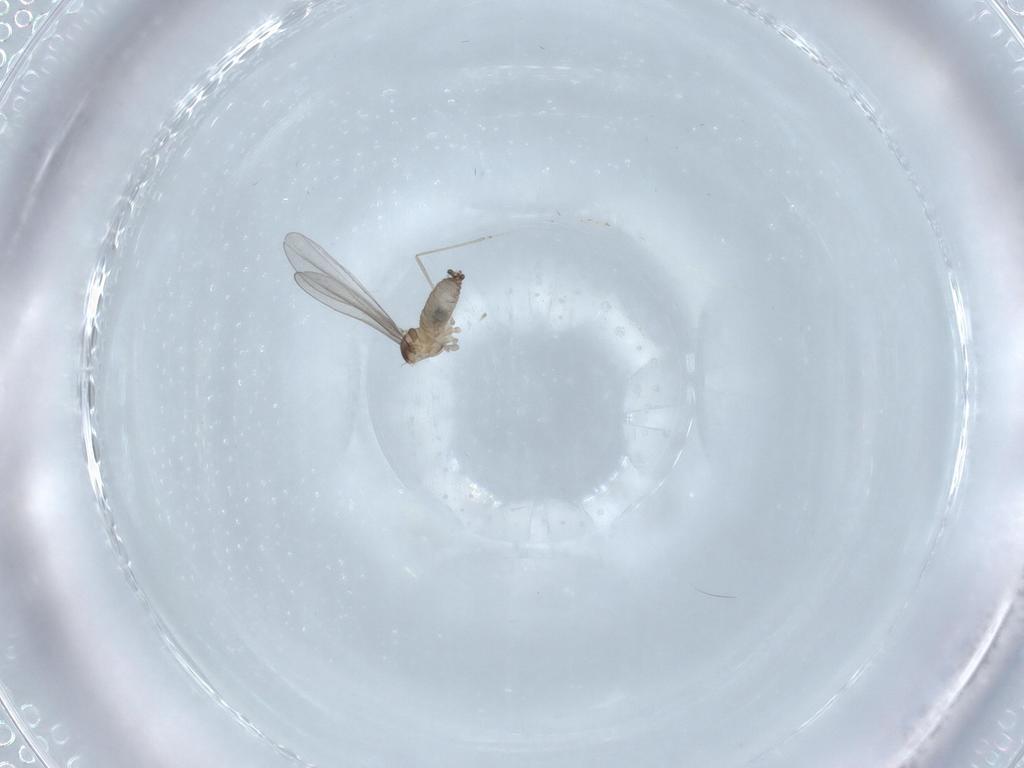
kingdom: Animalia
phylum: Arthropoda
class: Insecta
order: Diptera
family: Cecidomyiidae
